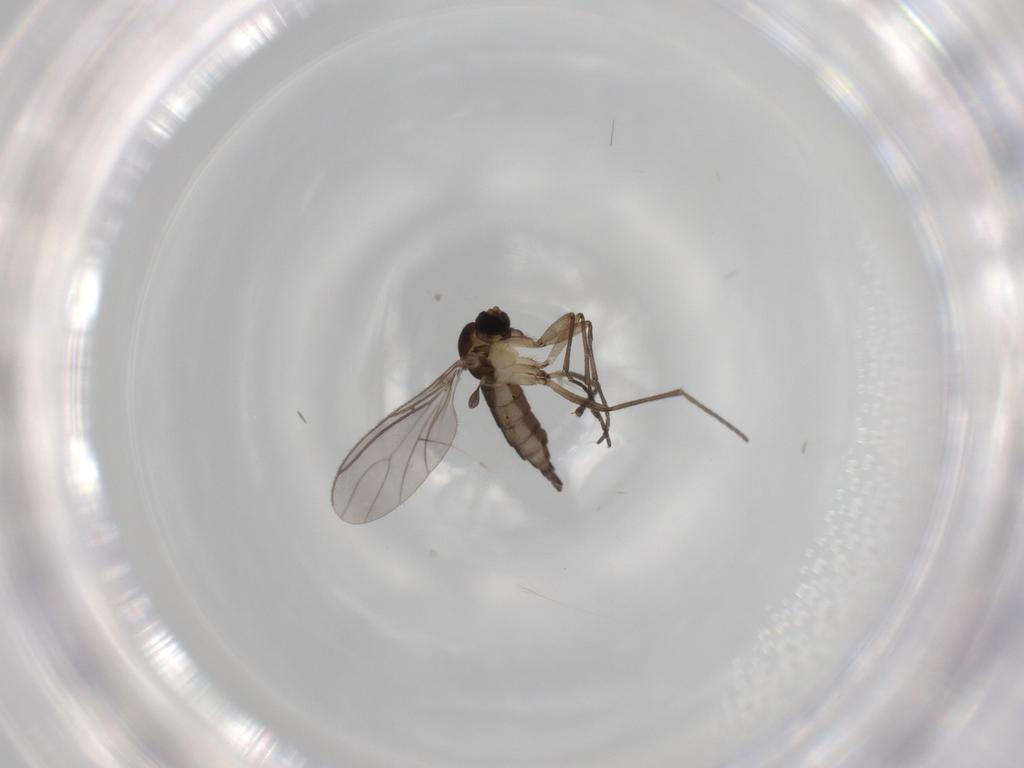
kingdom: Animalia
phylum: Arthropoda
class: Insecta
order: Diptera
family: Sciaridae
